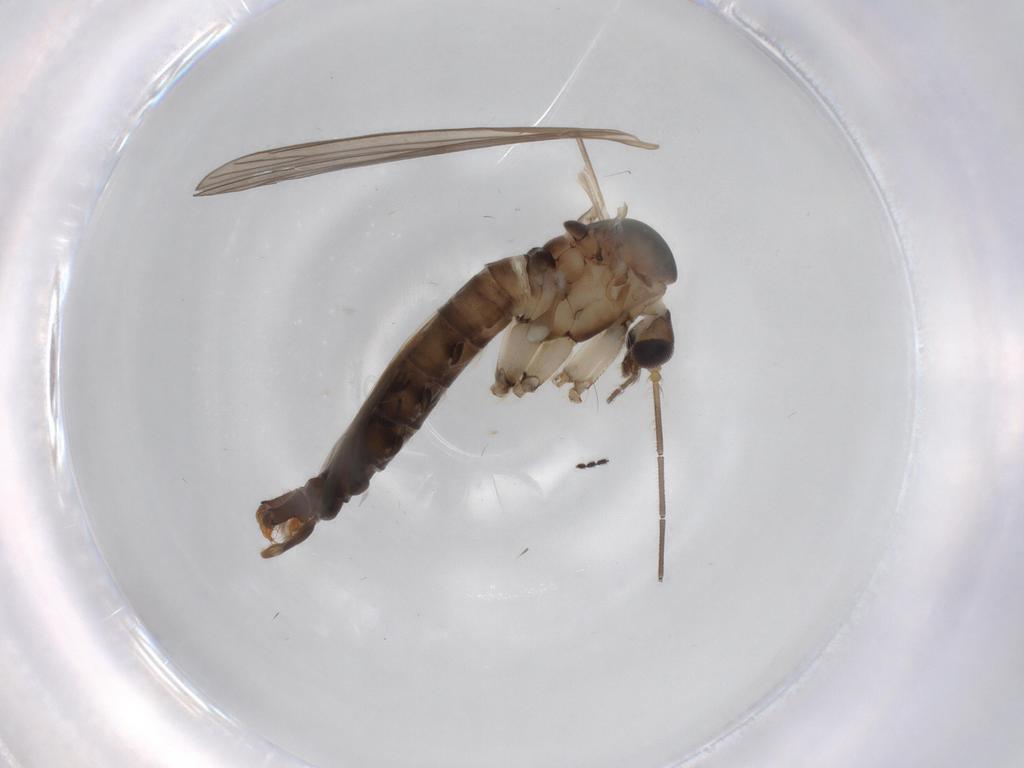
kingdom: Animalia
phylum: Arthropoda
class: Insecta
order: Diptera
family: Psychodidae
